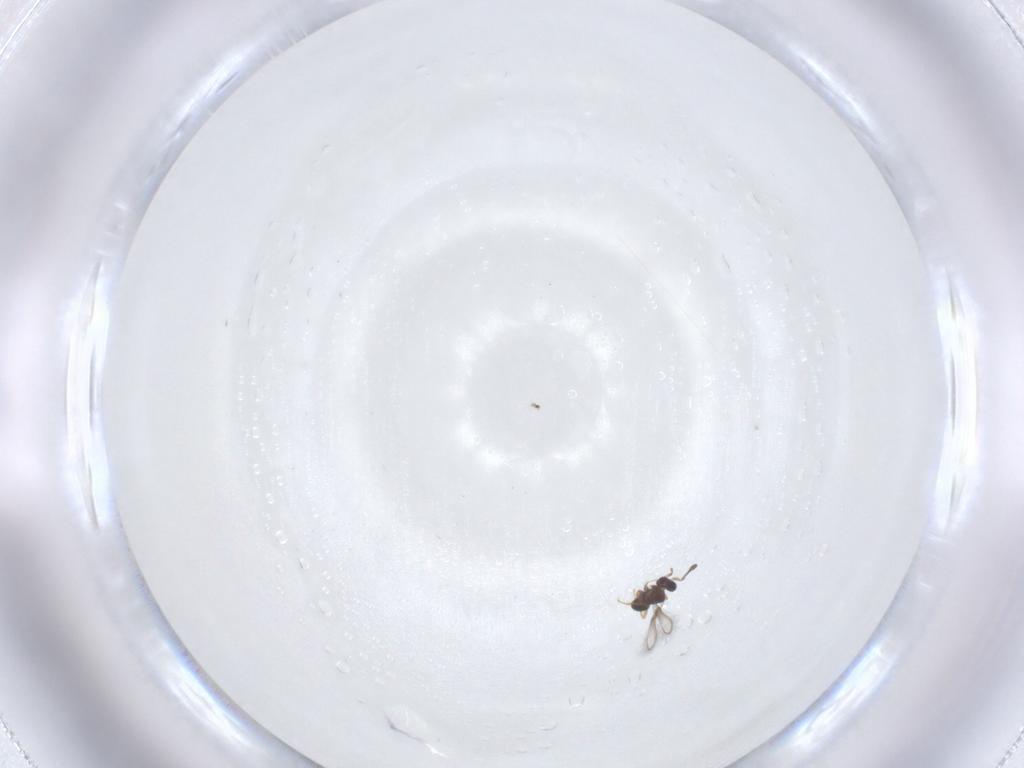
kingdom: Animalia
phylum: Arthropoda
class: Insecta
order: Hymenoptera
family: Mymaridae
